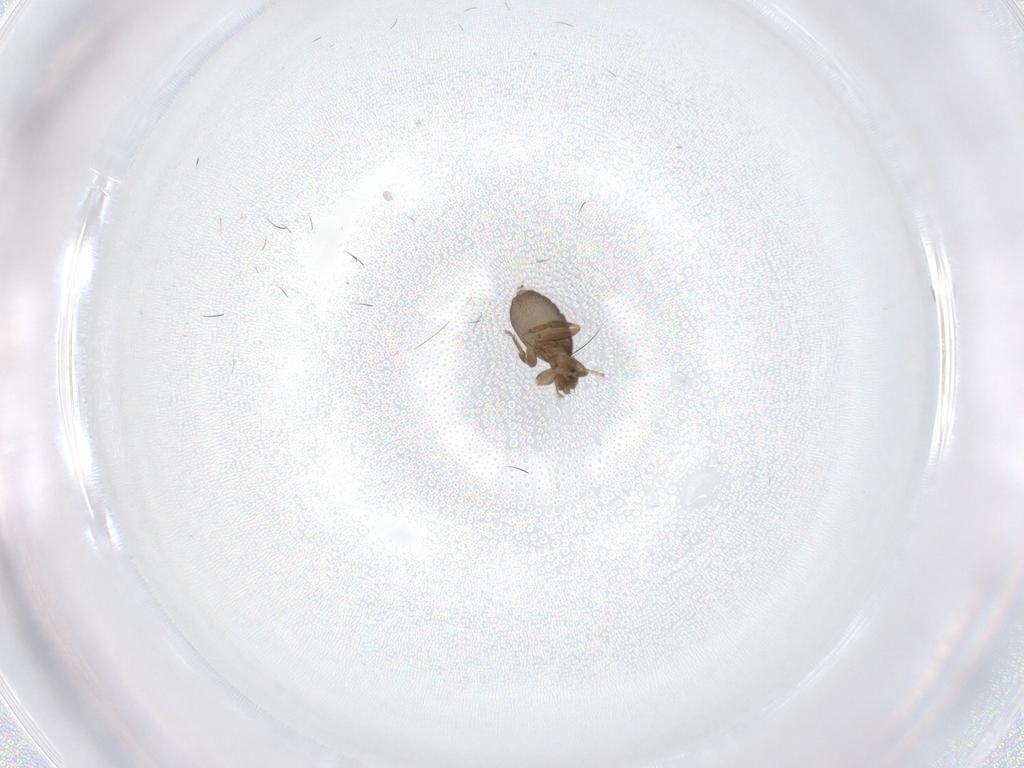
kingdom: Animalia
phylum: Arthropoda
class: Insecta
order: Diptera
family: Phoridae
